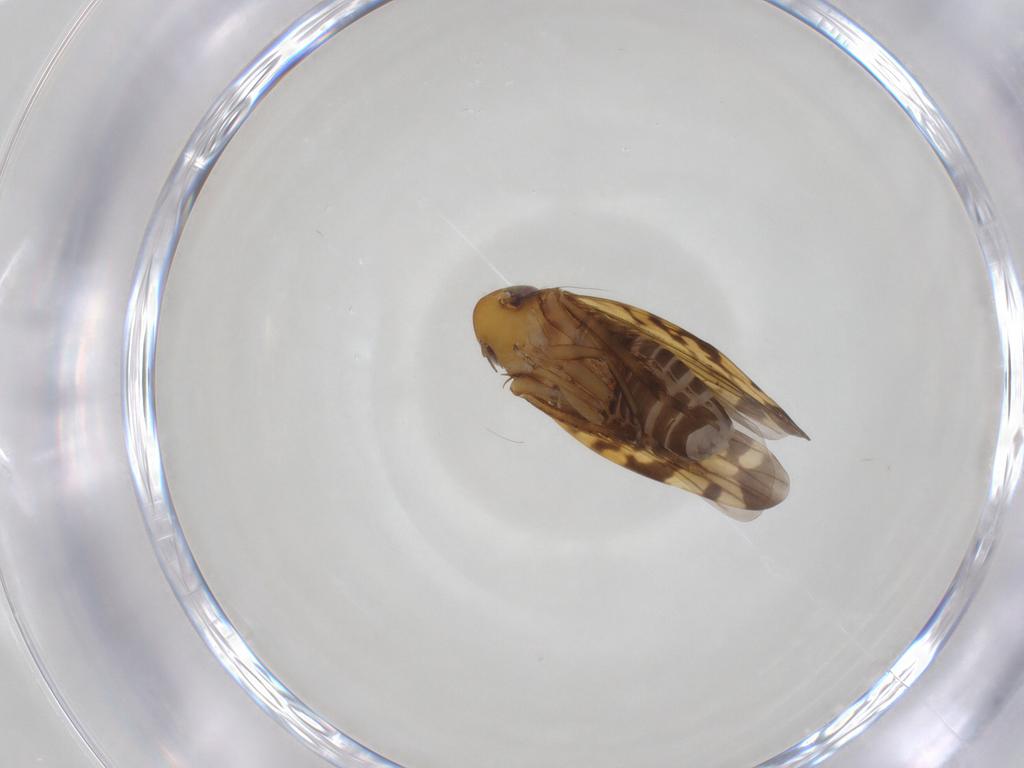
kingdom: Animalia
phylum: Arthropoda
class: Insecta
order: Hemiptera
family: Cicadellidae
